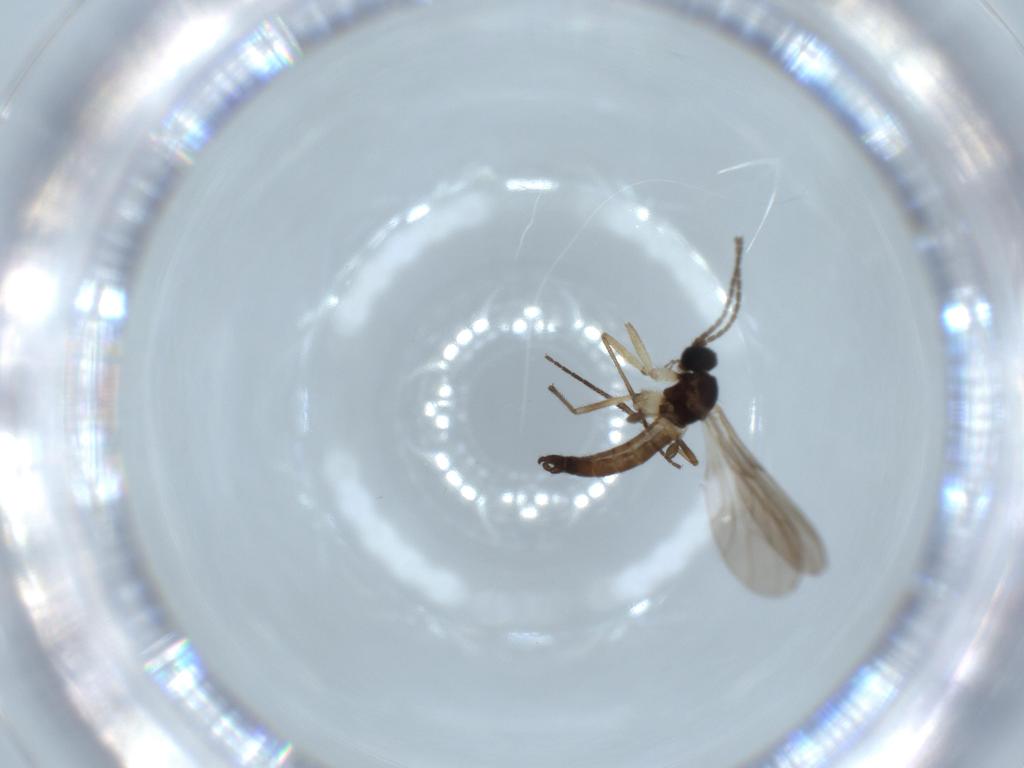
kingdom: Animalia
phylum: Arthropoda
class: Insecta
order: Diptera
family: Sciaridae
